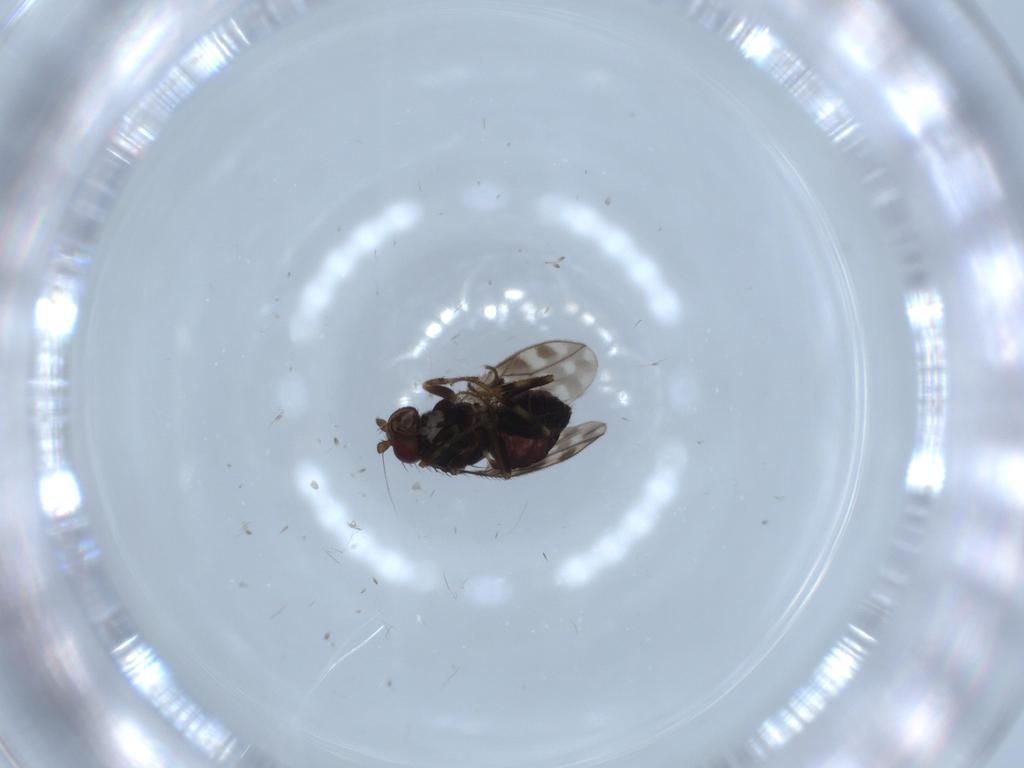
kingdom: Animalia
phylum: Arthropoda
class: Insecta
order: Diptera
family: Sphaeroceridae
